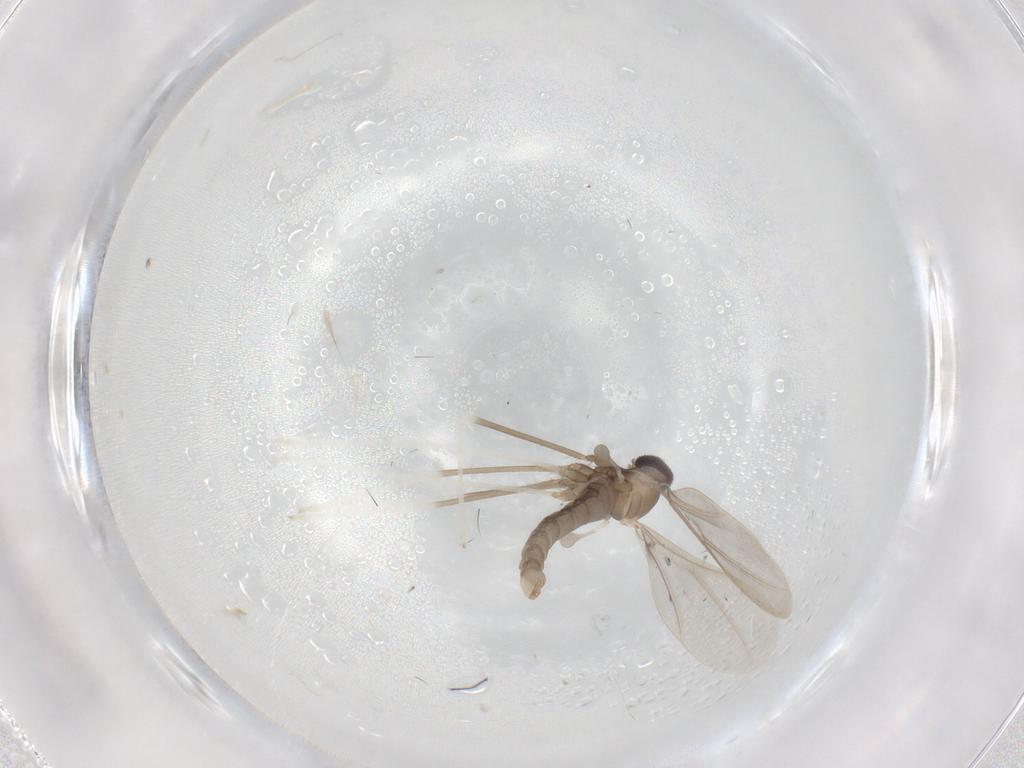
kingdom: Animalia
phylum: Arthropoda
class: Insecta
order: Diptera
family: Cecidomyiidae
